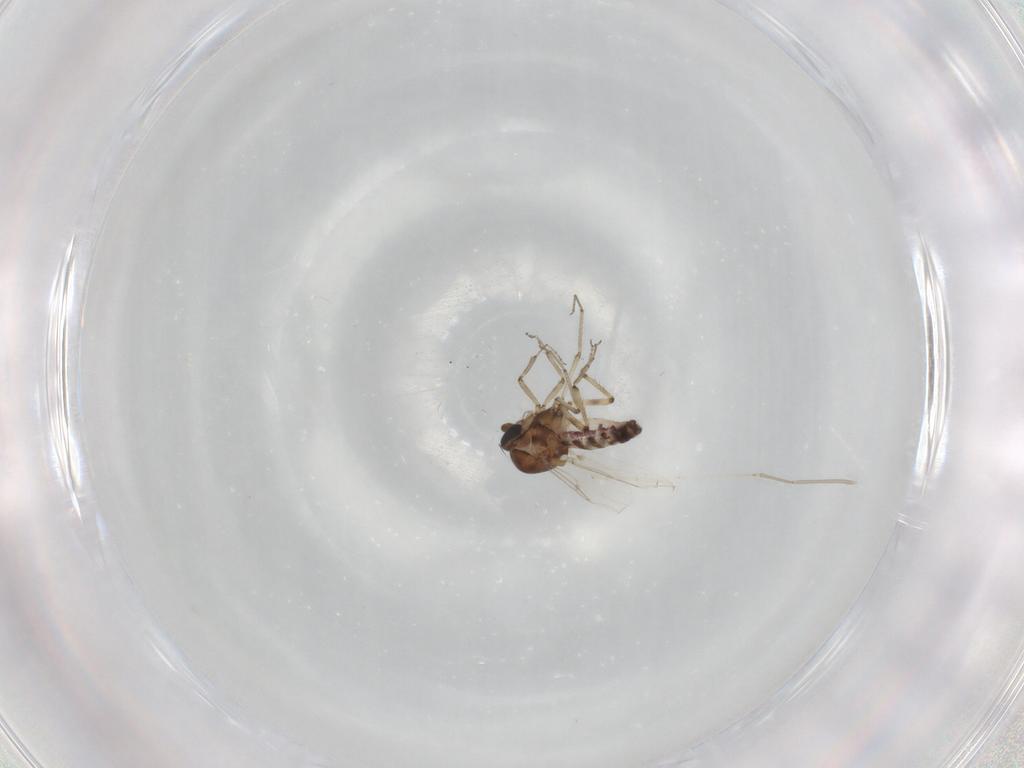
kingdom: Animalia
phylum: Arthropoda
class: Insecta
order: Diptera
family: Ceratopogonidae
